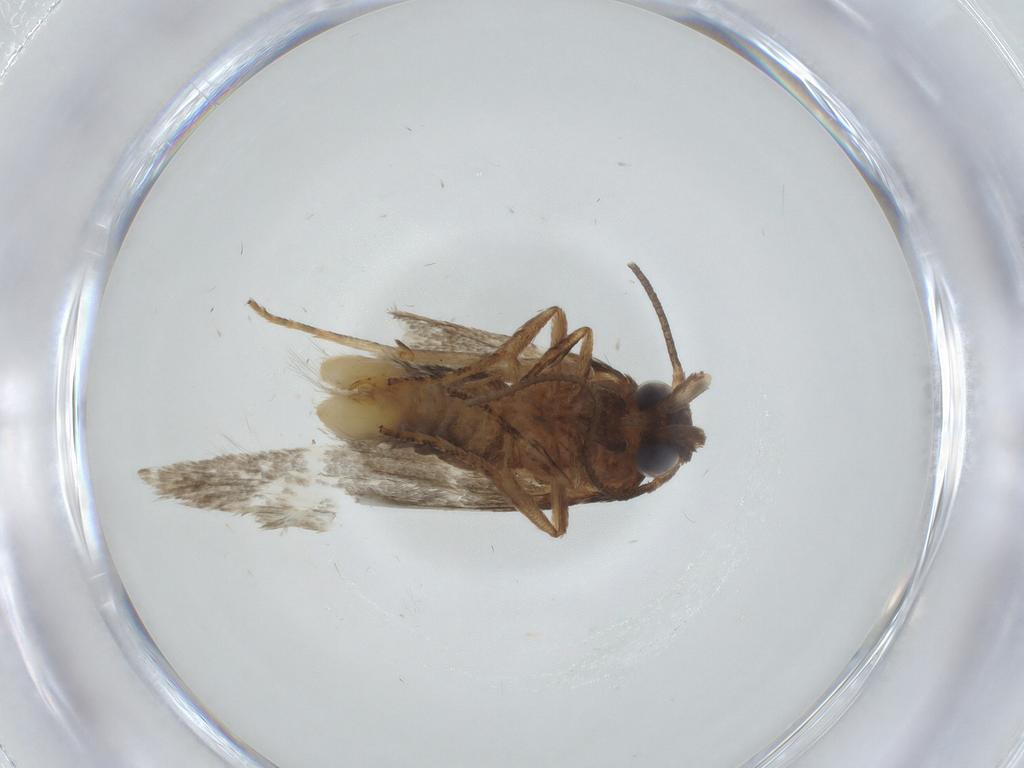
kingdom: Animalia
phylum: Arthropoda
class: Insecta
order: Lepidoptera
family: Blastobasidae
